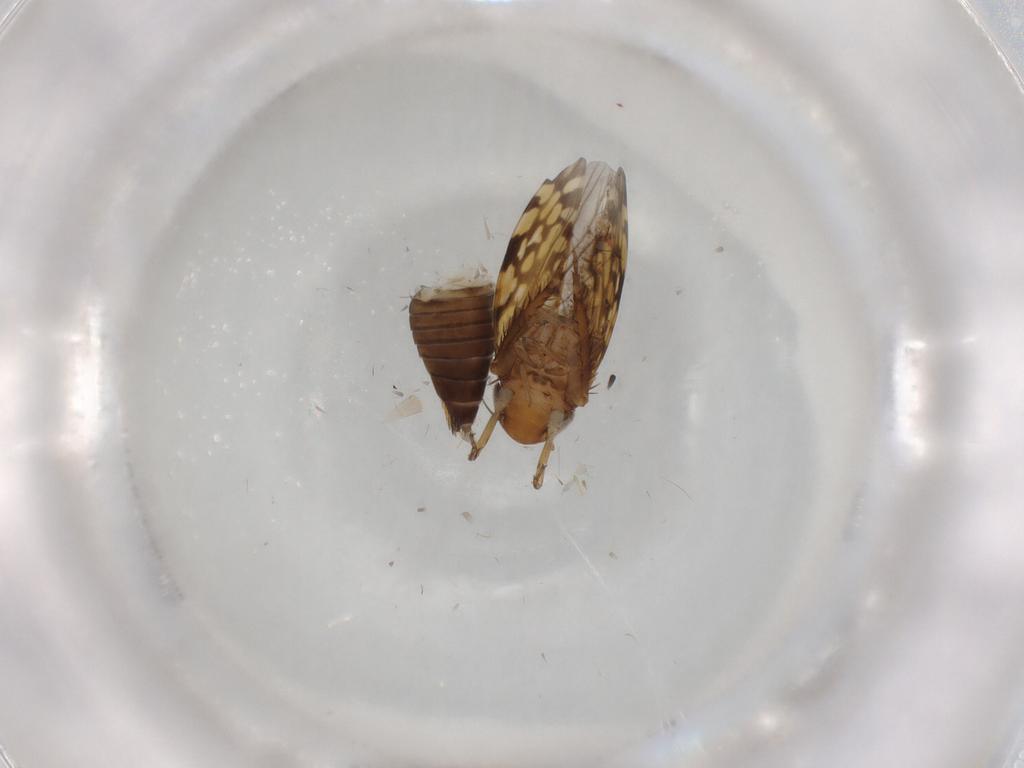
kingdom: Animalia
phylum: Arthropoda
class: Insecta
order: Hemiptera
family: Cicadellidae
